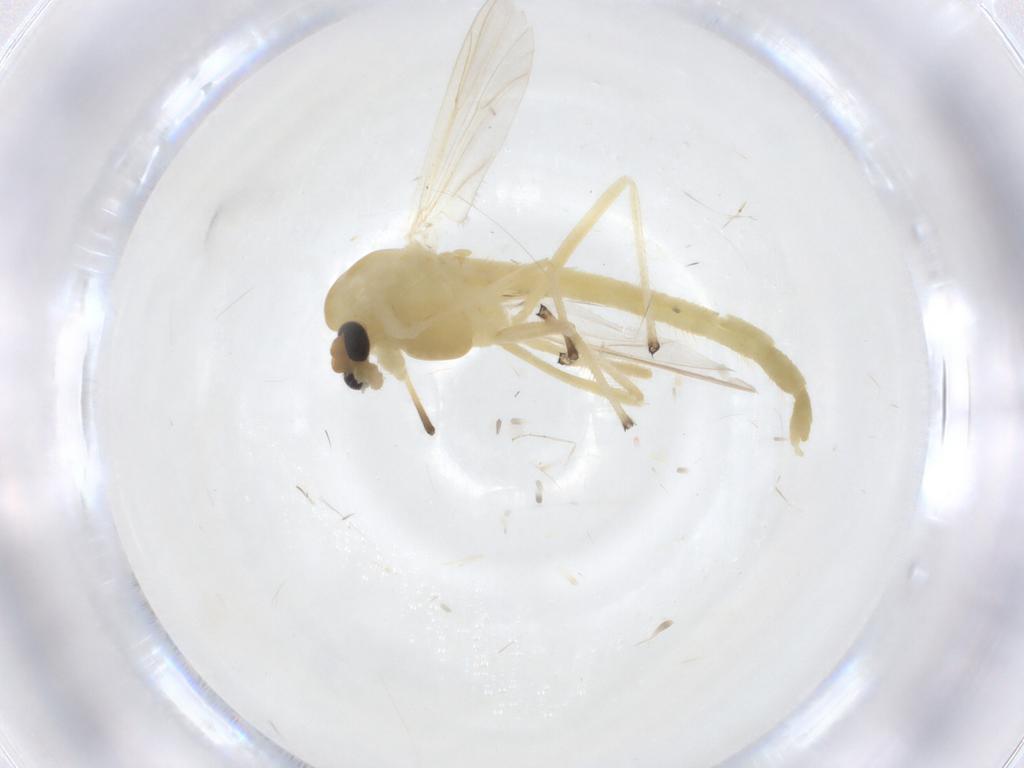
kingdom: Animalia
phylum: Arthropoda
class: Insecta
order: Diptera
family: Chironomidae
